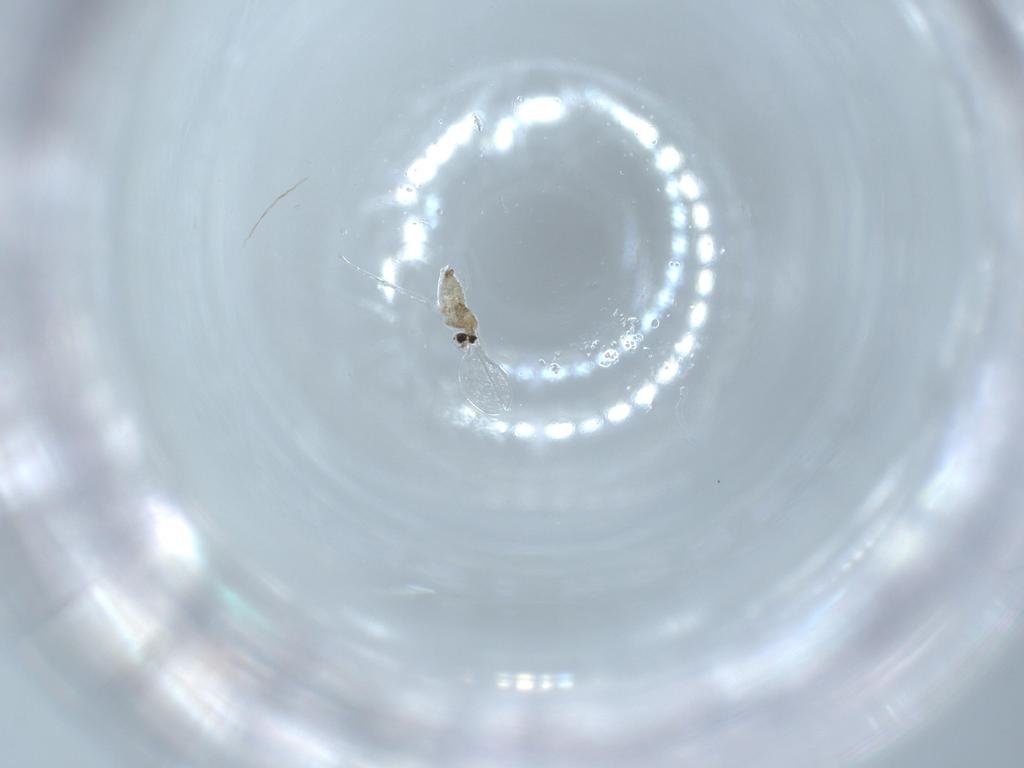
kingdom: Animalia
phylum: Arthropoda
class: Insecta
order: Diptera
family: Cecidomyiidae
